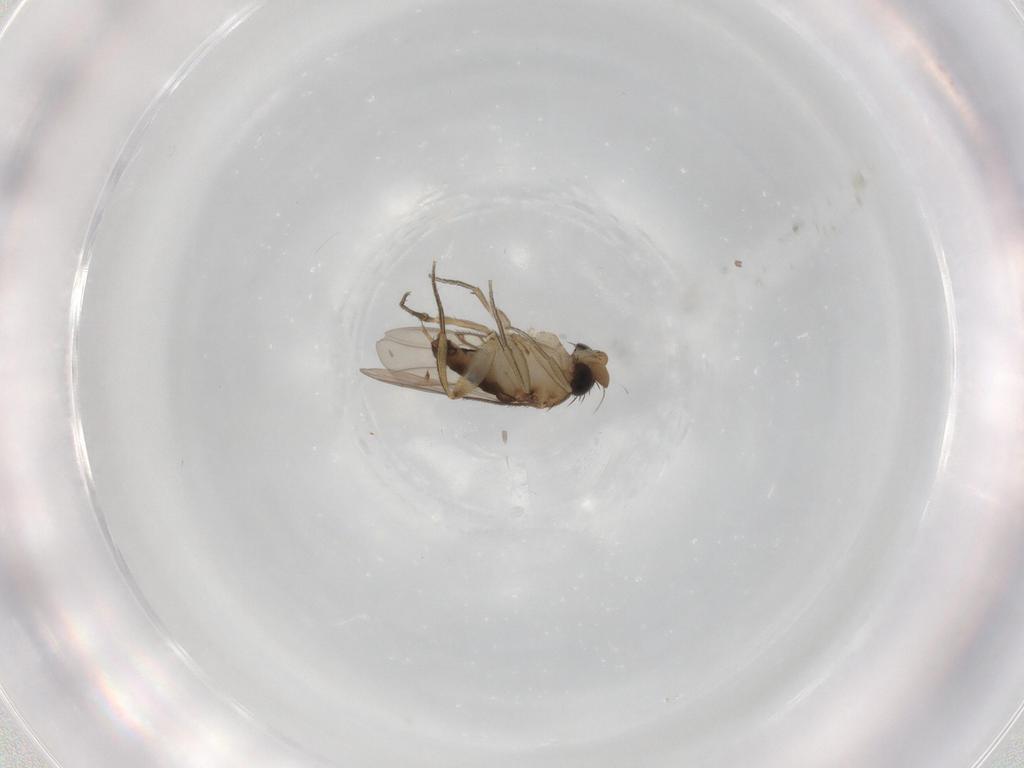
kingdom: Animalia
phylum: Arthropoda
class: Insecta
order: Diptera
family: Phoridae
